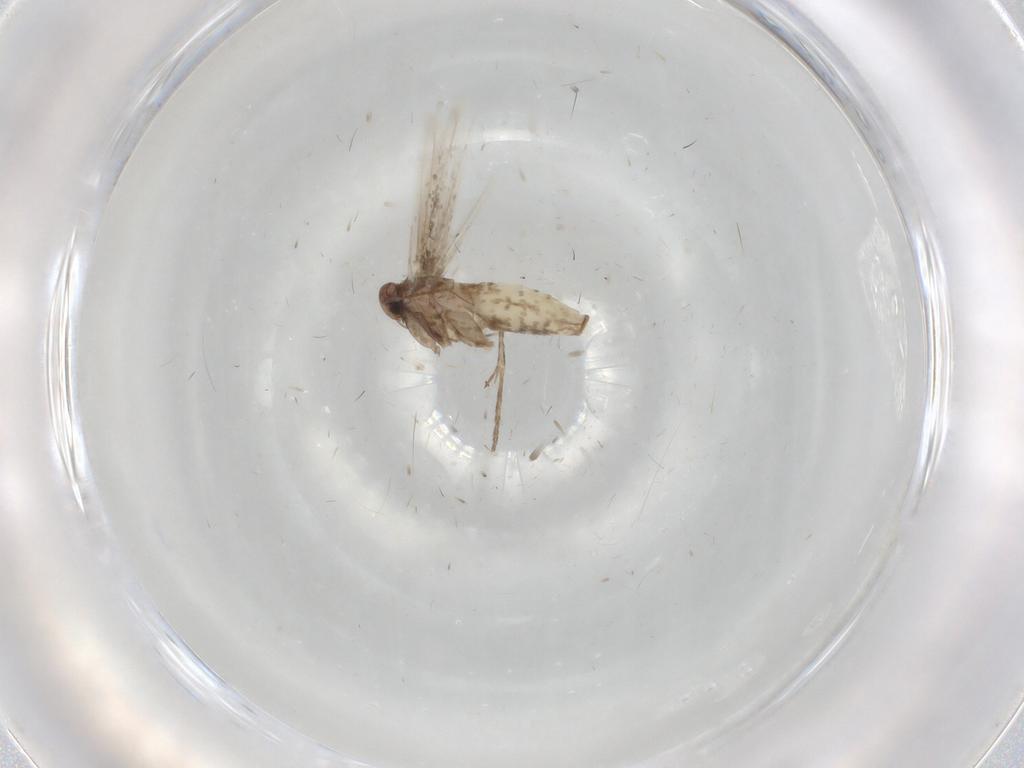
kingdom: Animalia
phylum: Arthropoda
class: Insecta
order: Lepidoptera
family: Gracillariidae
